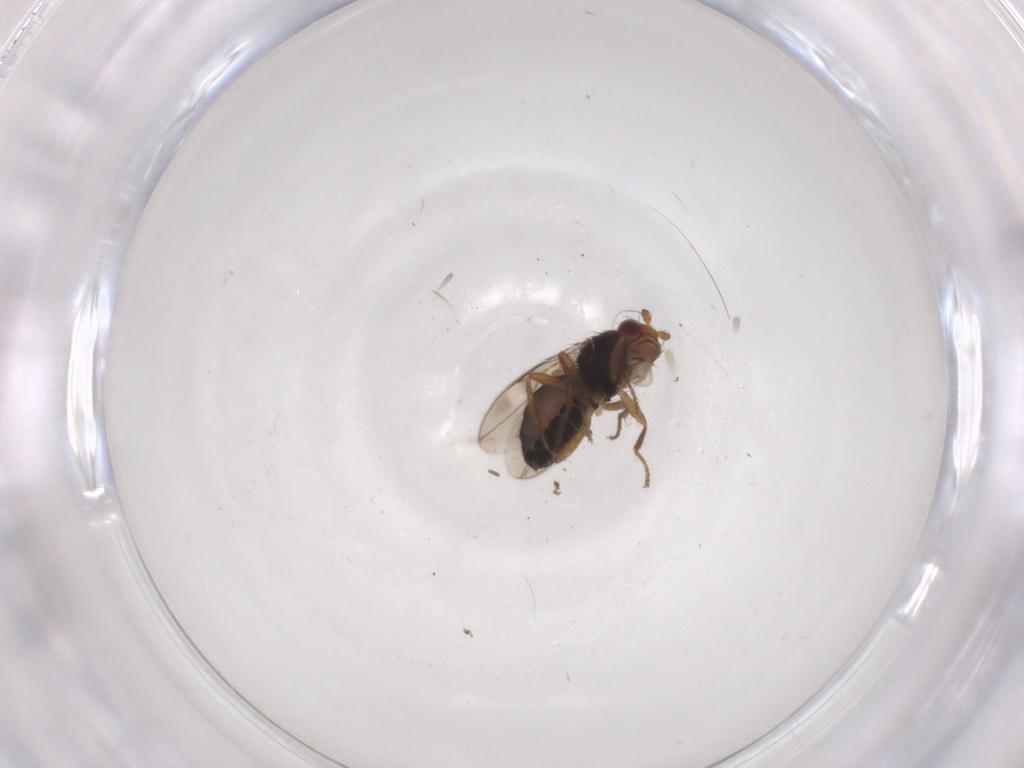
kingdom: Animalia
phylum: Arthropoda
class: Insecta
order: Diptera
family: Sphaeroceridae
